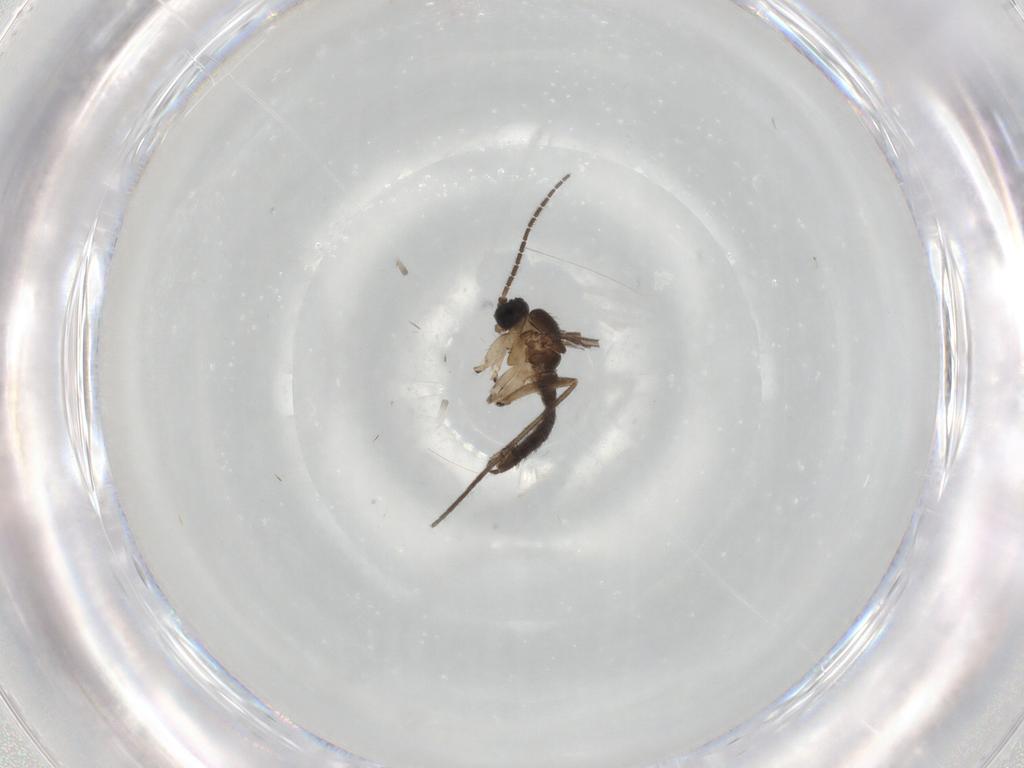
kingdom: Animalia
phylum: Arthropoda
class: Insecta
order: Diptera
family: Sciaridae
